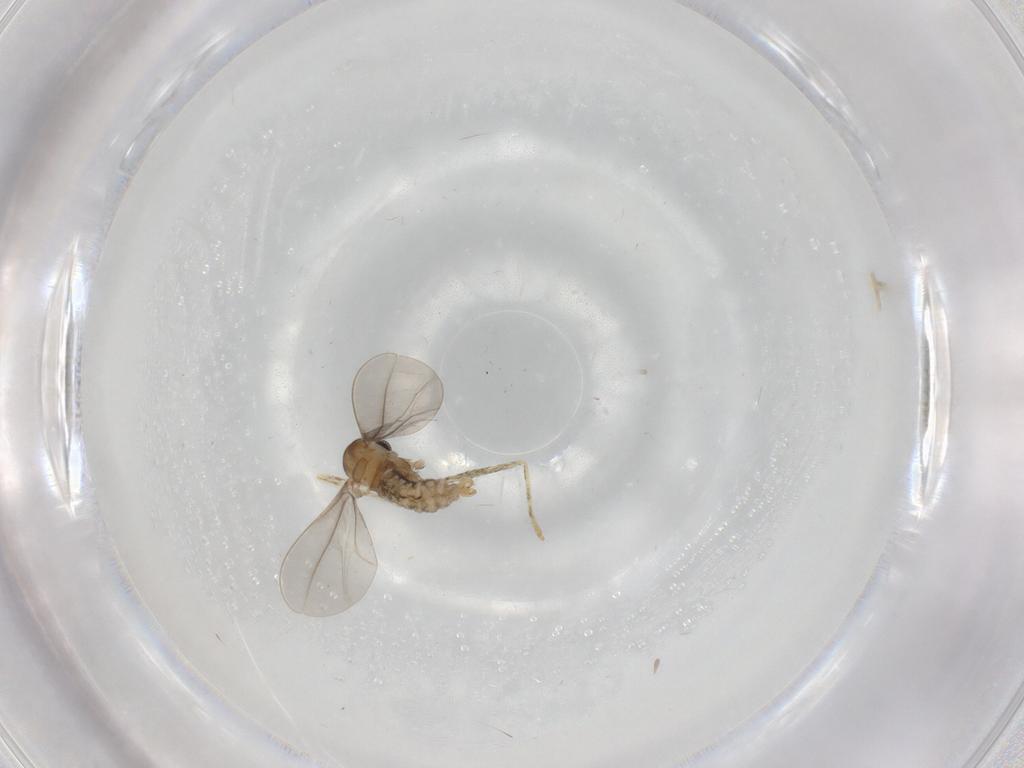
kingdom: Animalia
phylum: Arthropoda
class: Insecta
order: Diptera
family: Cecidomyiidae
